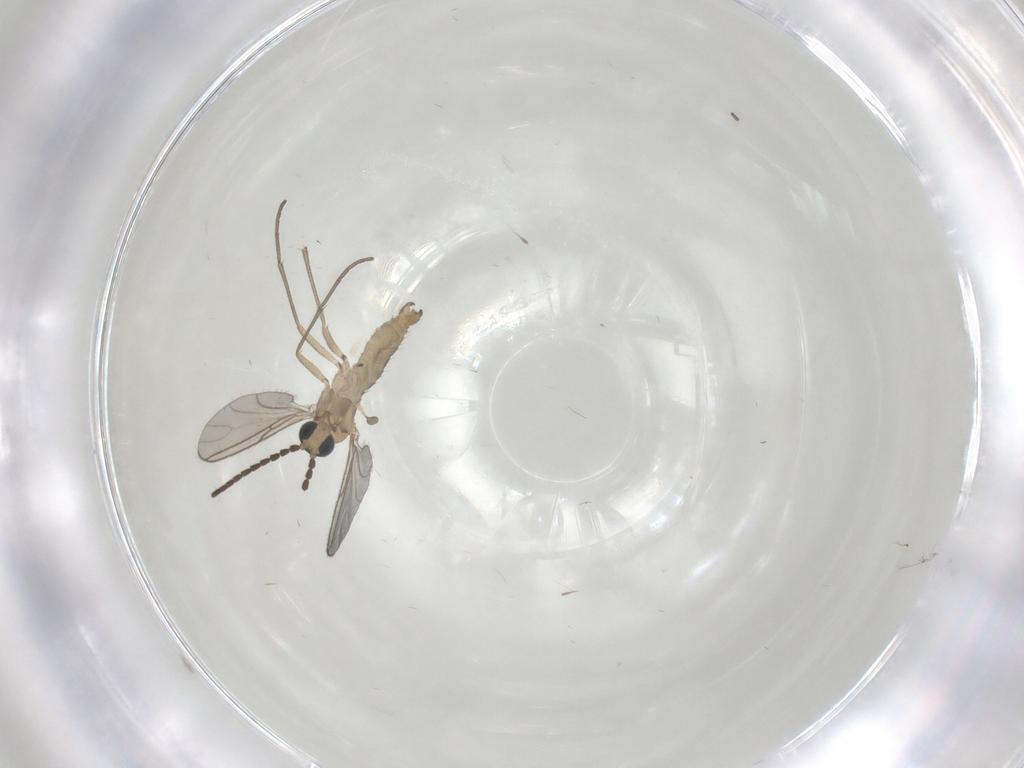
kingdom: Animalia
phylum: Arthropoda
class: Insecta
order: Diptera
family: Sciaridae
